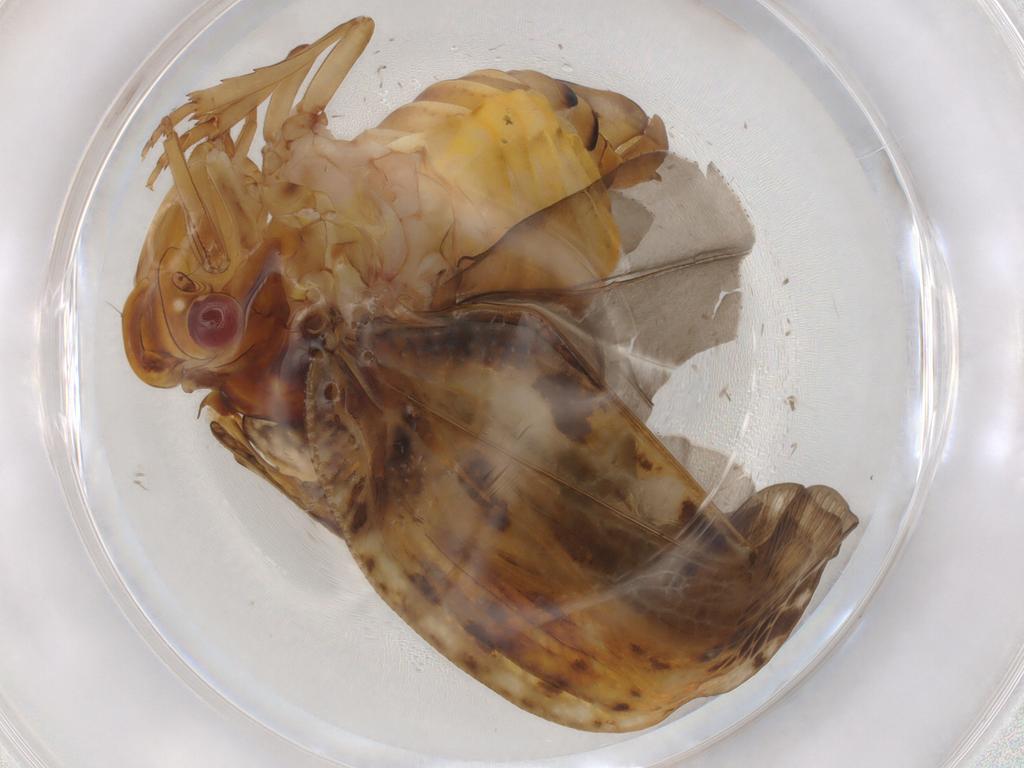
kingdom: Animalia
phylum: Arthropoda
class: Insecta
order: Hemiptera
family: Flatidae
